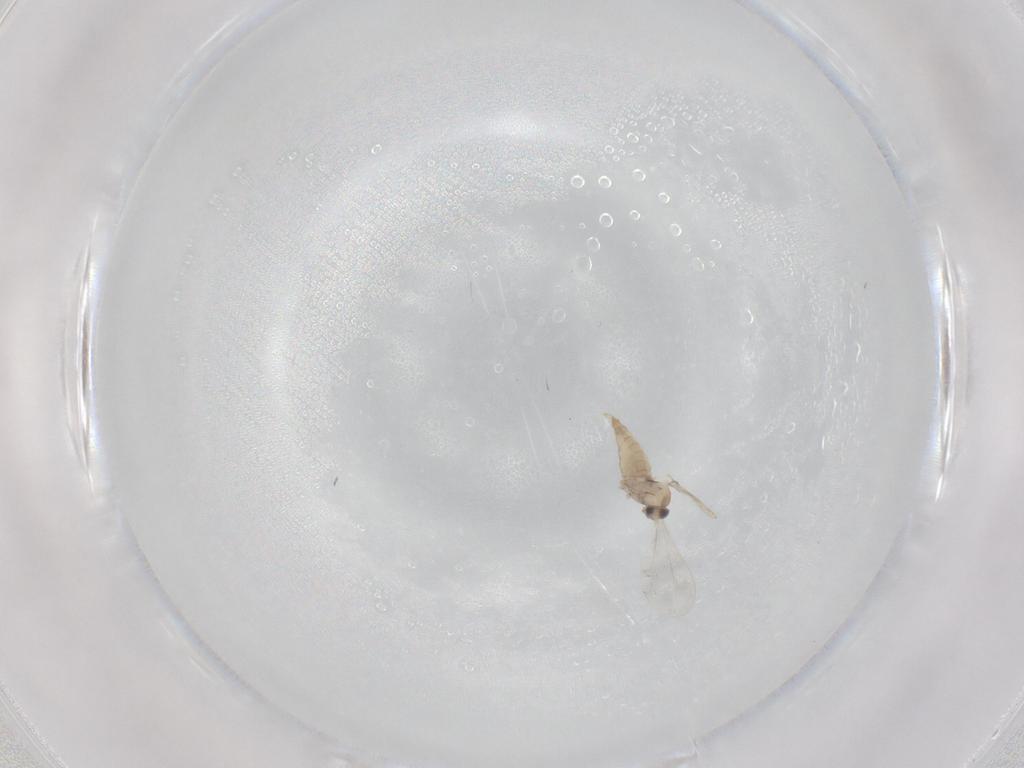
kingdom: Animalia
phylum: Arthropoda
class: Insecta
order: Diptera
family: Cecidomyiidae
